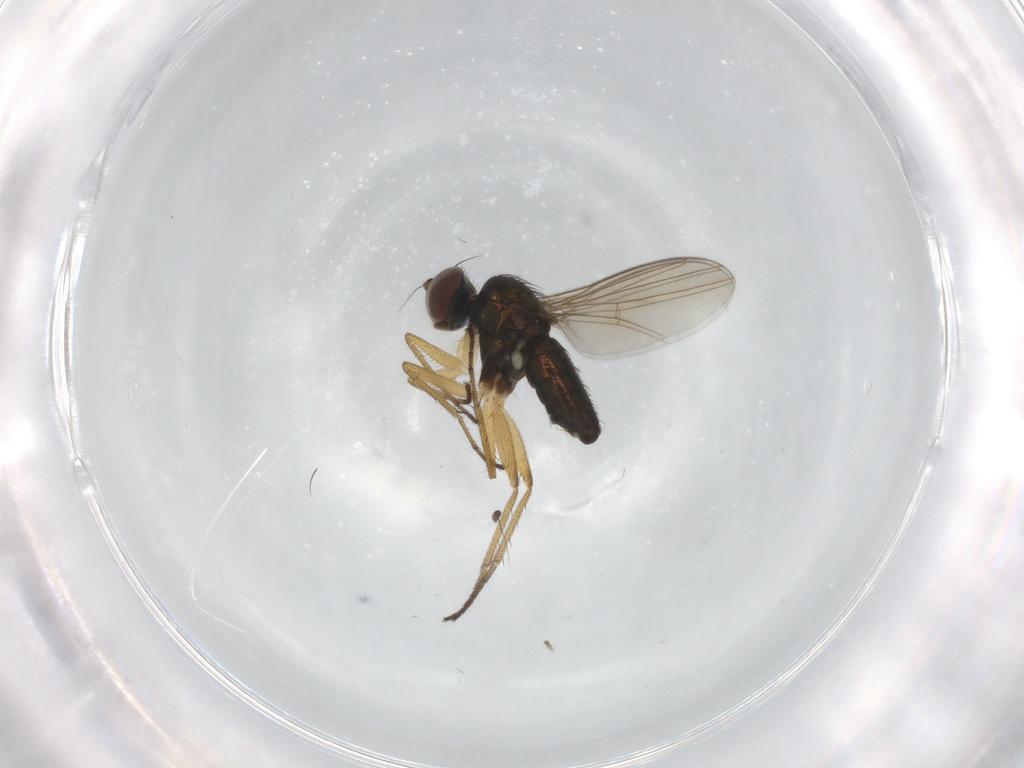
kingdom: Animalia
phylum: Arthropoda
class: Insecta
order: Diptera
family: Dolichopodidae
